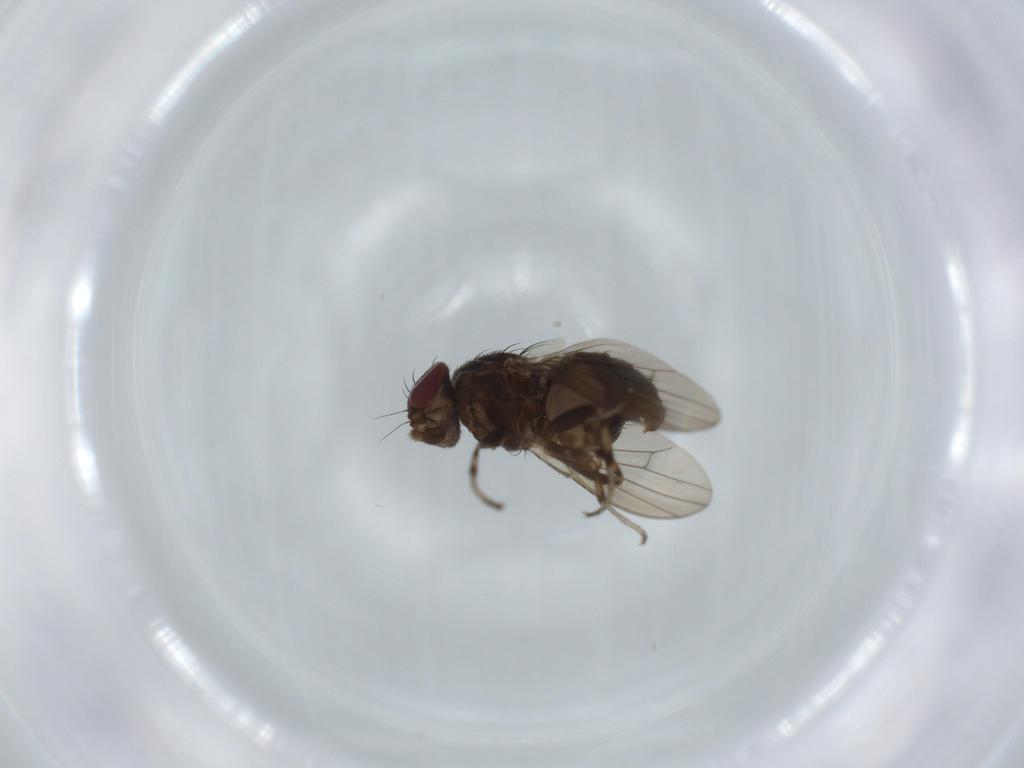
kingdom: Animalia
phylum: Arthropoda
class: Insecta
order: Diptera
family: Heleomyzidae
